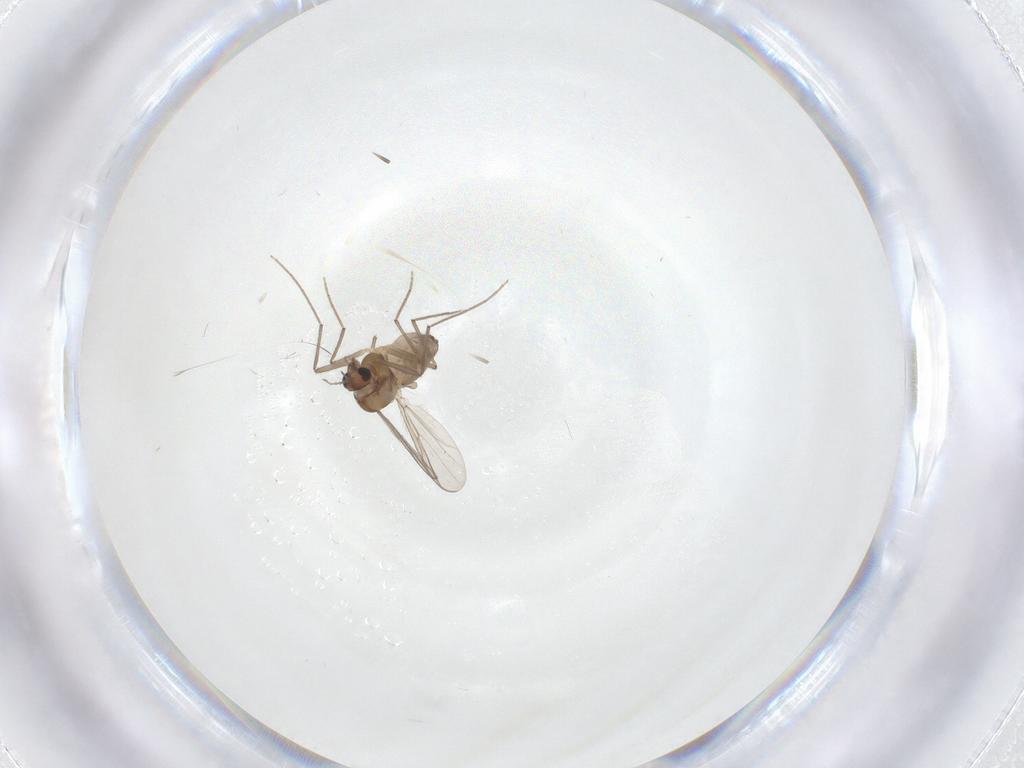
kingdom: Animalia
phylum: Arthropoda
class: Insecta
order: Diptera
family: Chironomidae
